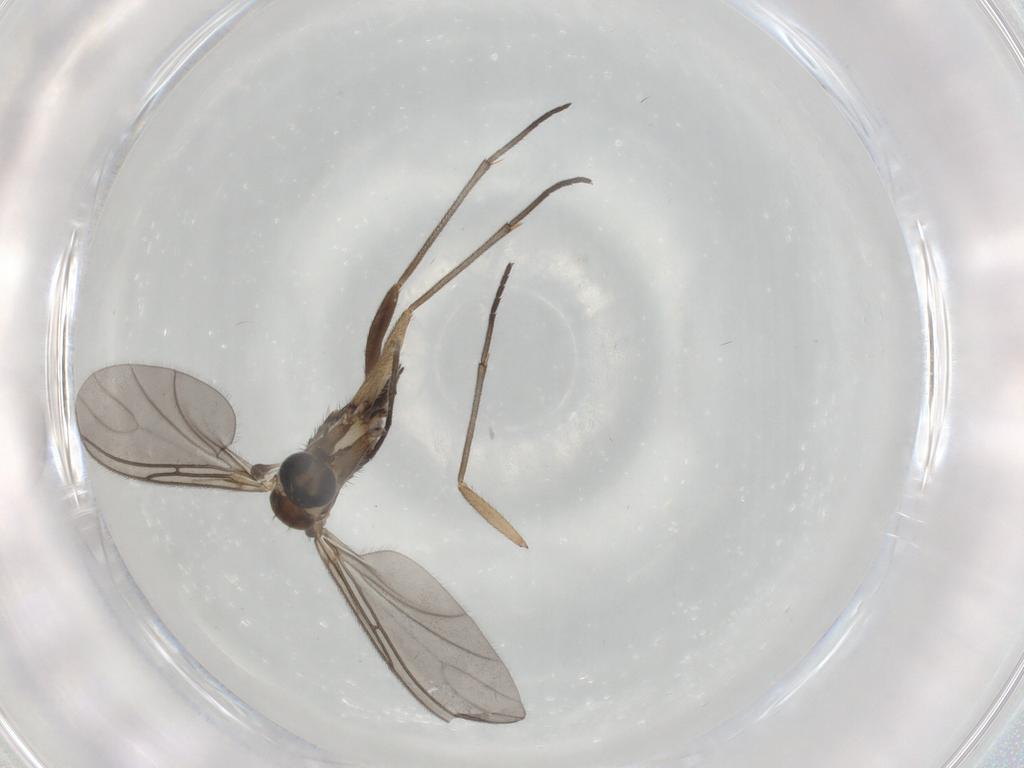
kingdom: Animalia
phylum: Arthropoda
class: Insecta
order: Diptera
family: Sciaridae
